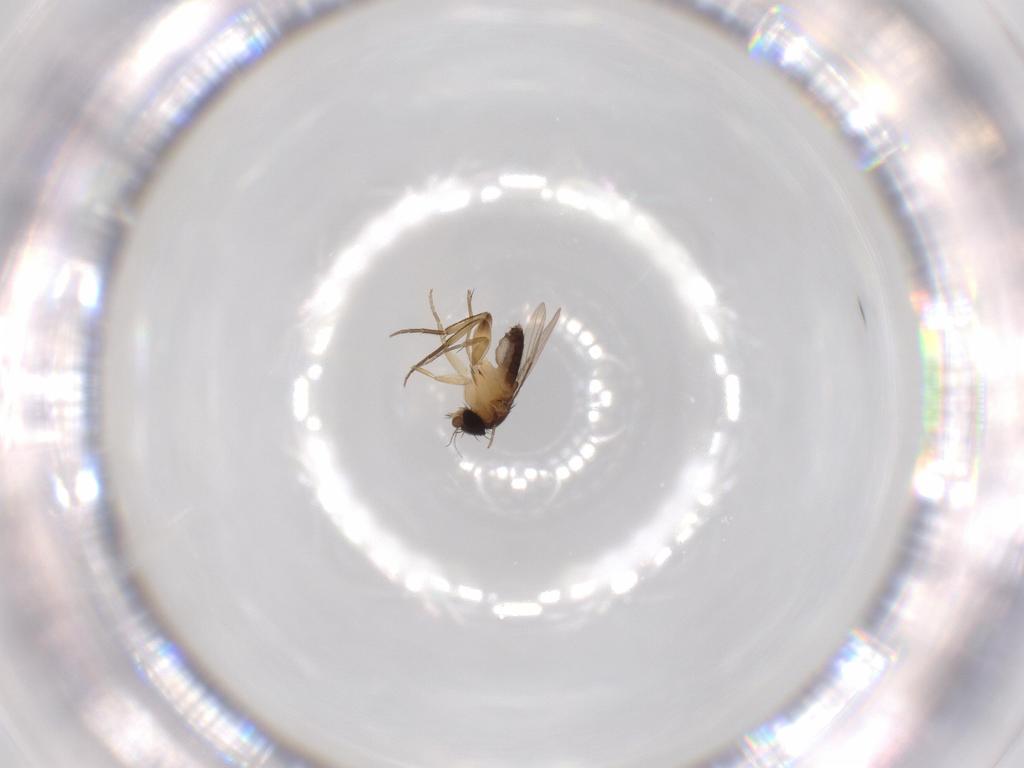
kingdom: Animalia
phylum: Arthropoda
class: Insecta
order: Diptera
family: Phoridae
